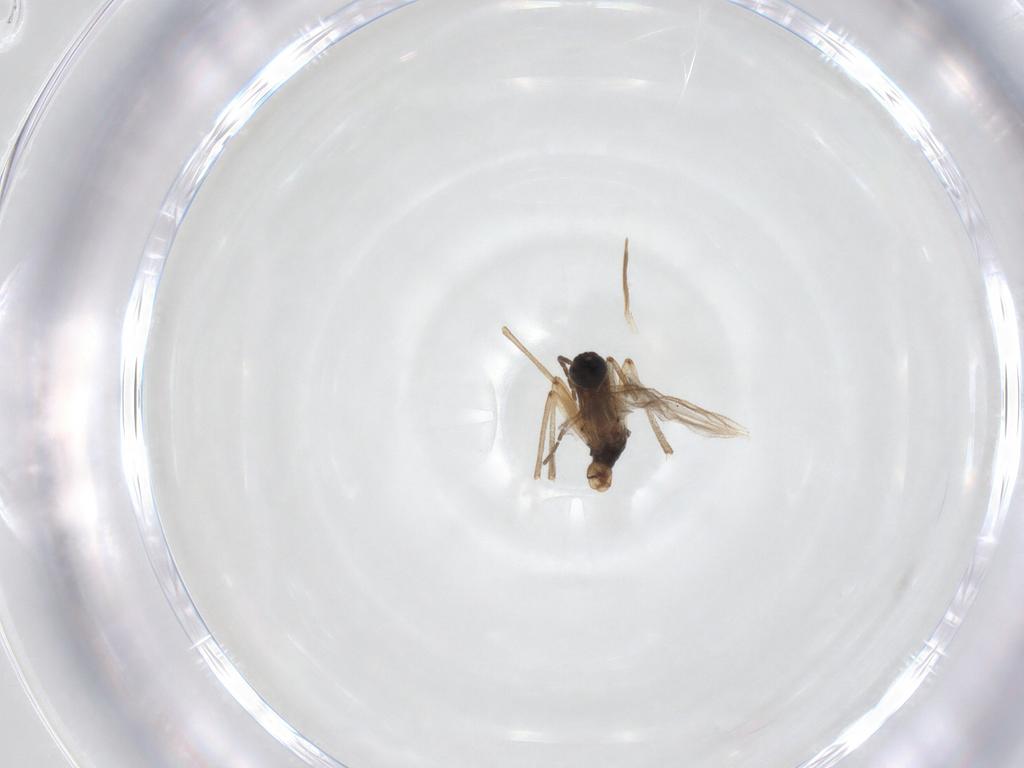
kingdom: Animalia
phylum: Arthropoda
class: Insecta
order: Diptera
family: Sciaridae
